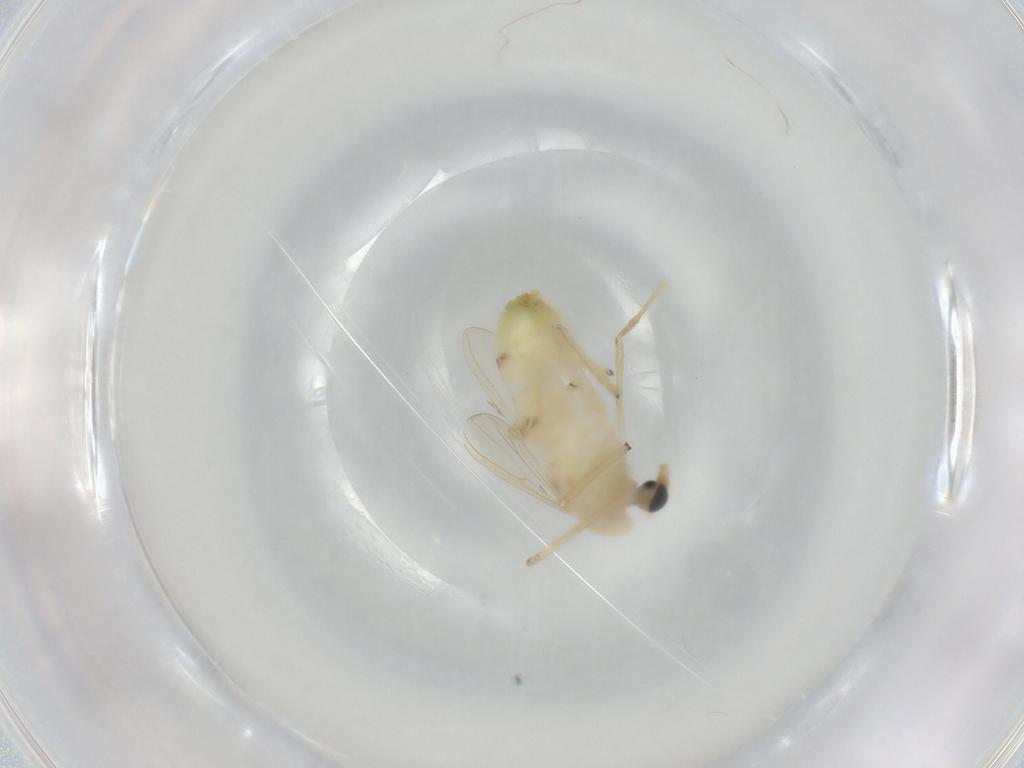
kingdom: Animalia
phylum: Arthropoda
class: Insecta
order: Diptera
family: Chironomidae
